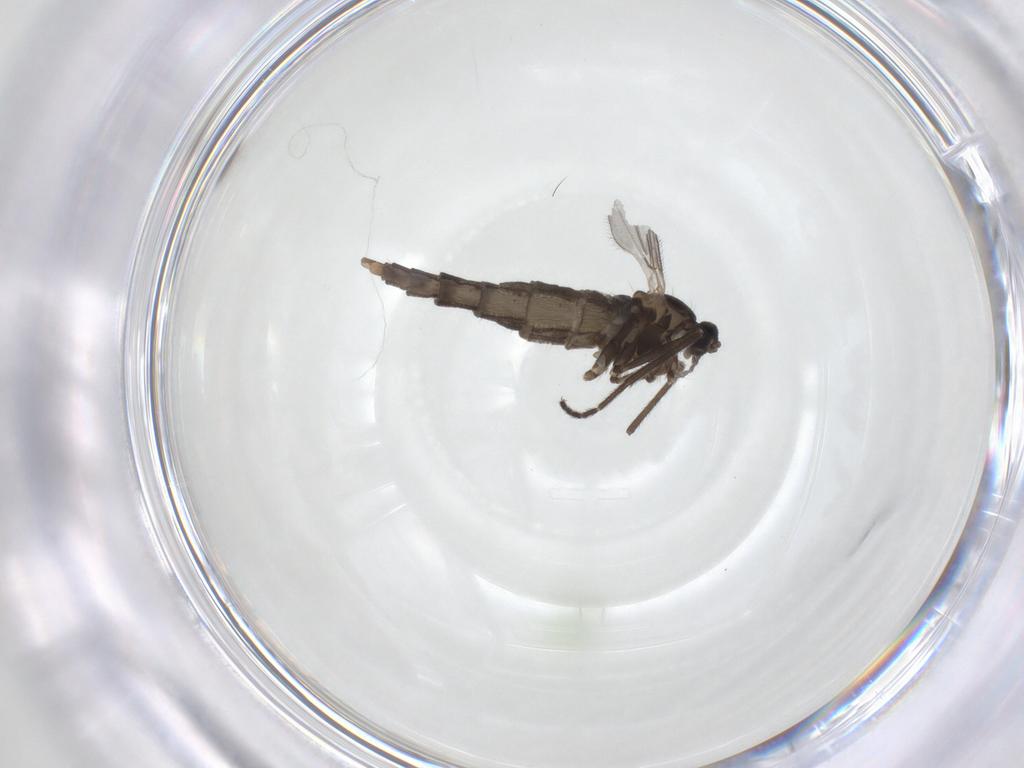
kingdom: Animalia
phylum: Arthropoda
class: Insecta
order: Diptera
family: Cecidomyiidae
